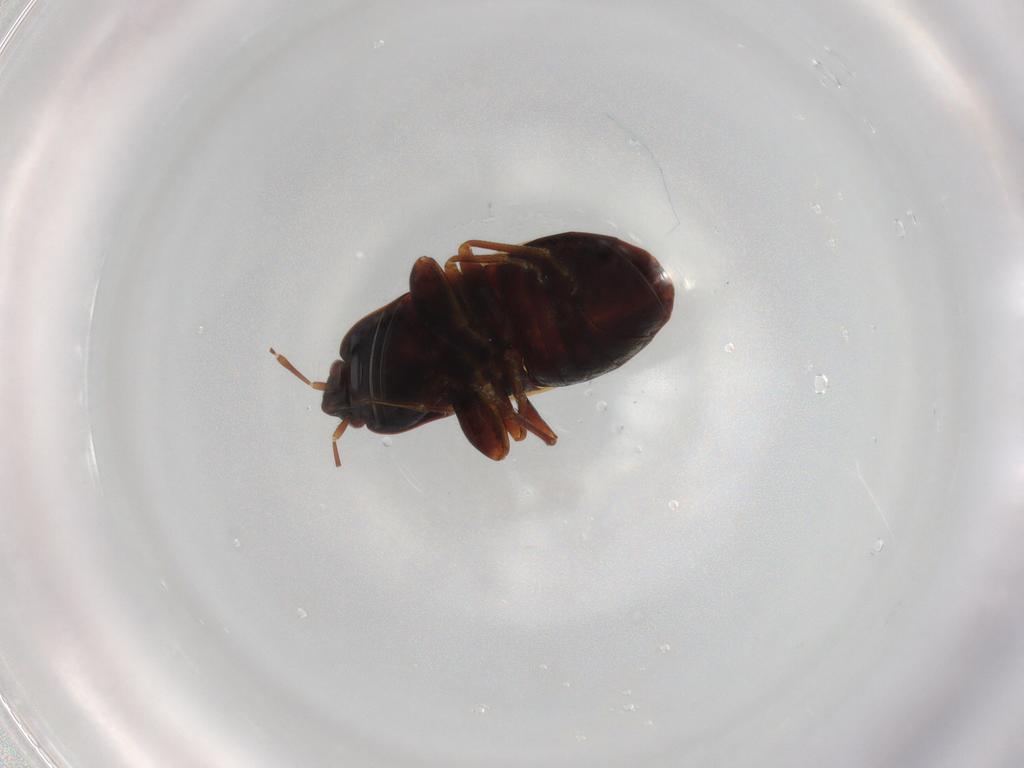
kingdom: Animalia
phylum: Arthropoda
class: Insecta
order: Hemiptera
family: Rhyparochromidae
